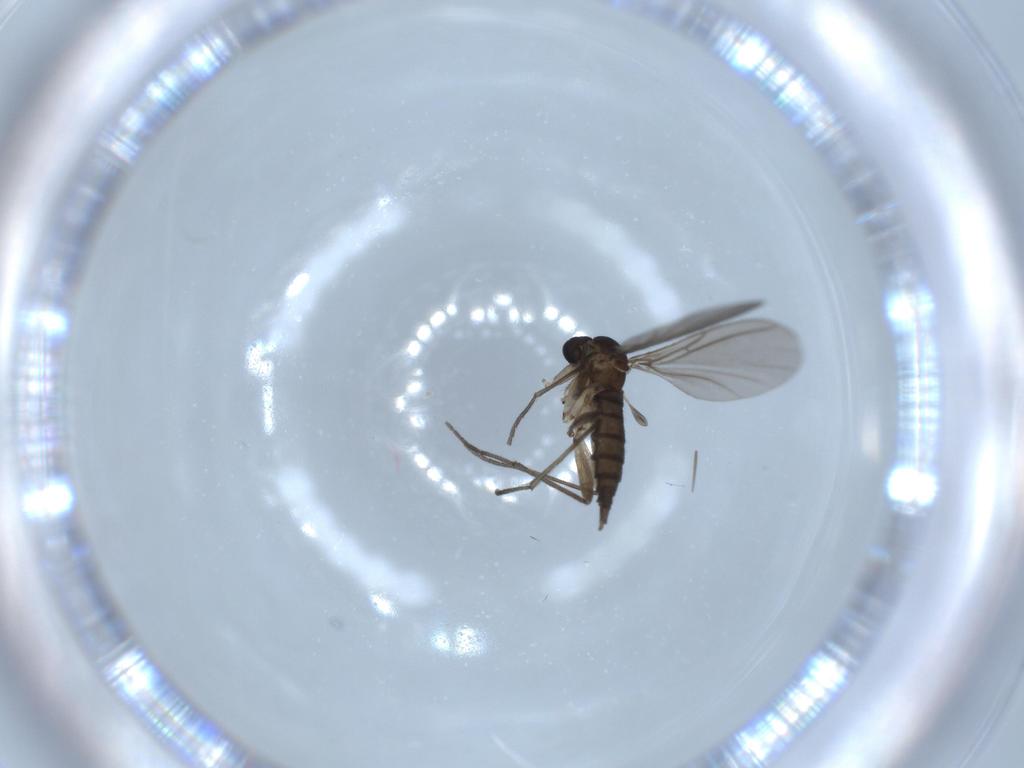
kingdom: Animalia
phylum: Arthropoda
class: Insecta
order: Diptera
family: Sciaridae
